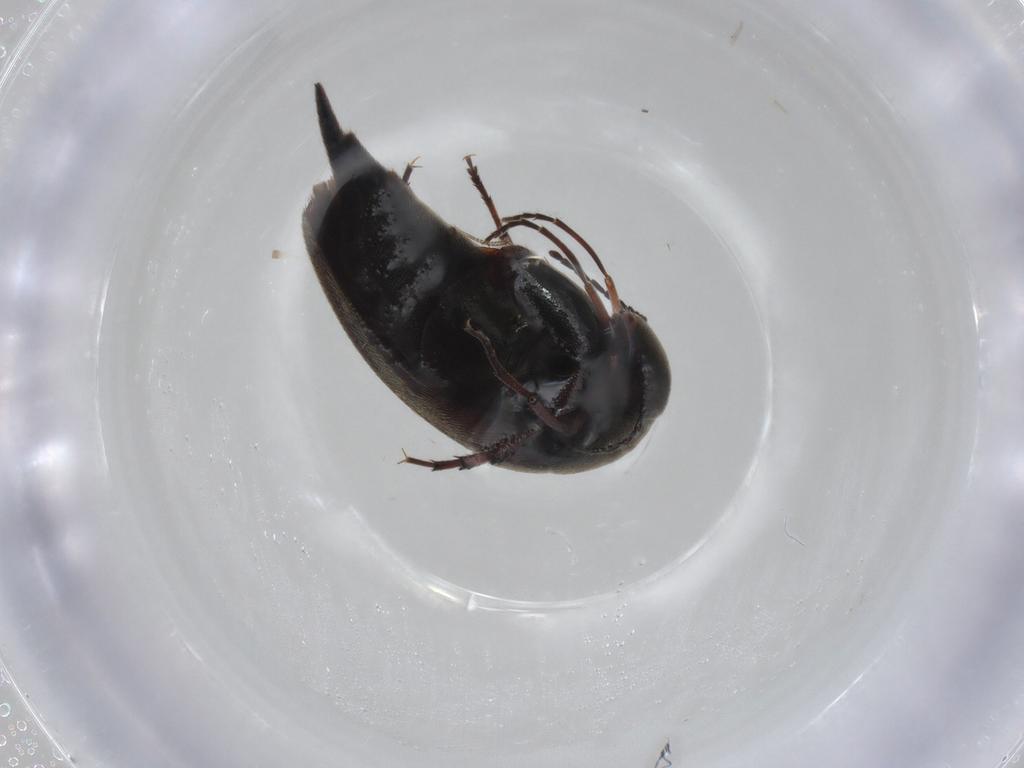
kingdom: Animalia
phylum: Arthropoda
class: Insecta
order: Coleoptera
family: Mordellidae
